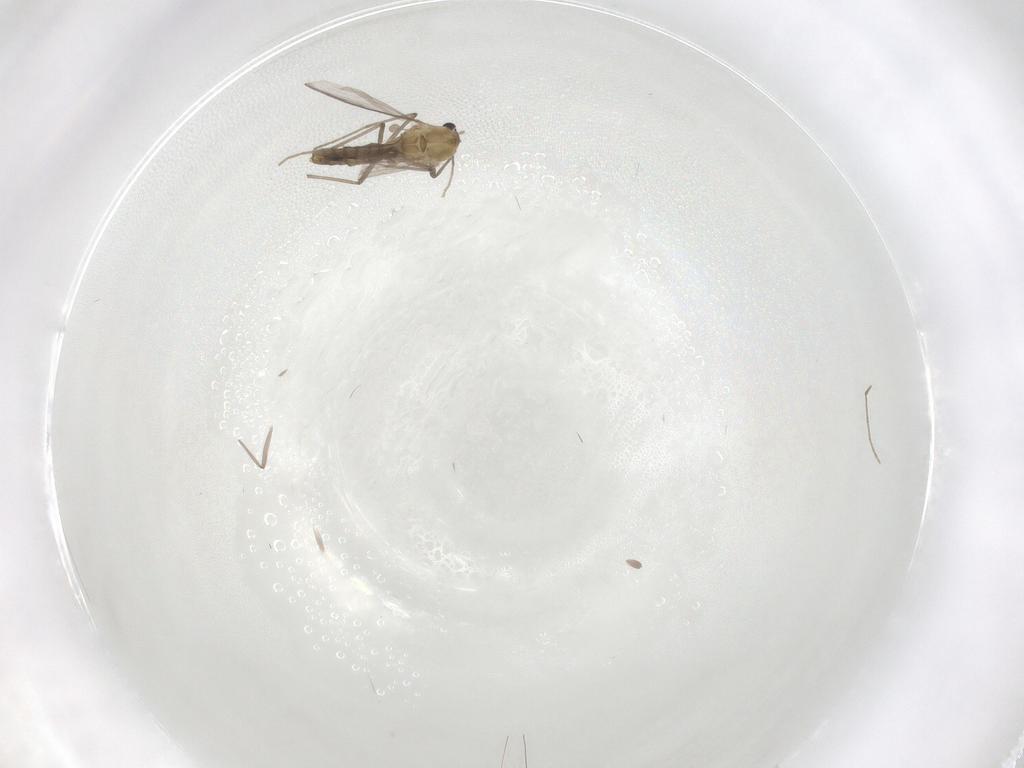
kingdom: Animalia
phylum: Arthropoda
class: Insecta
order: Diptera
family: Chironomidae
